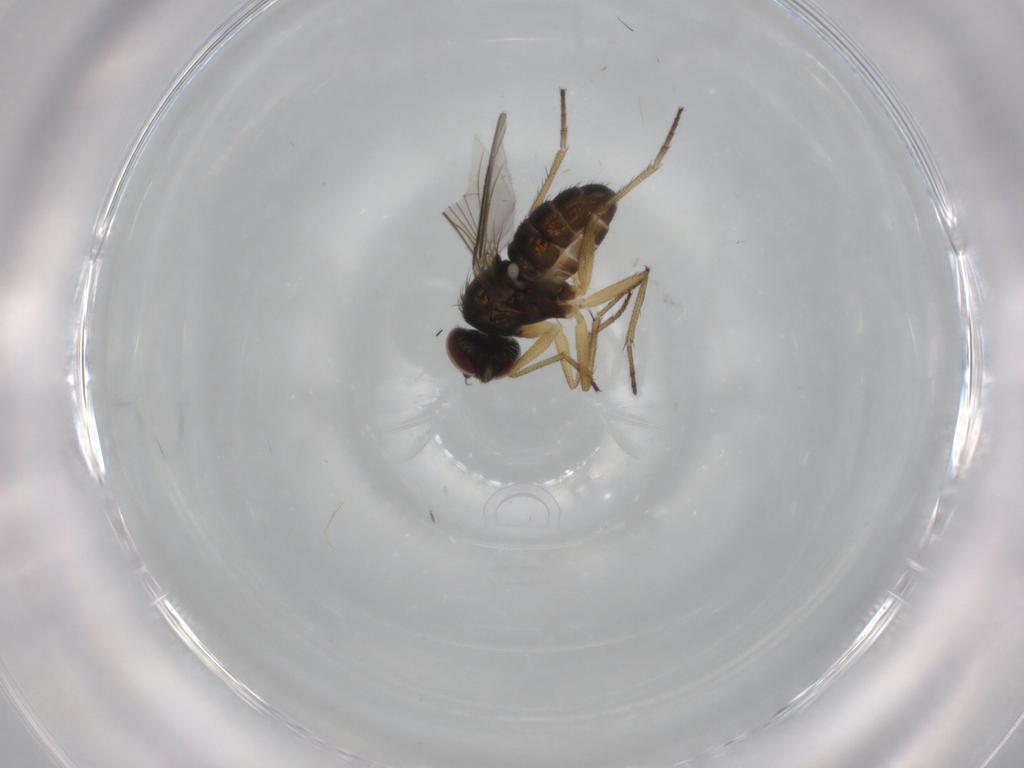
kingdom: Animalia
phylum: Arthropoda
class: Insecta
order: Diptera
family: Dolichopodidae
